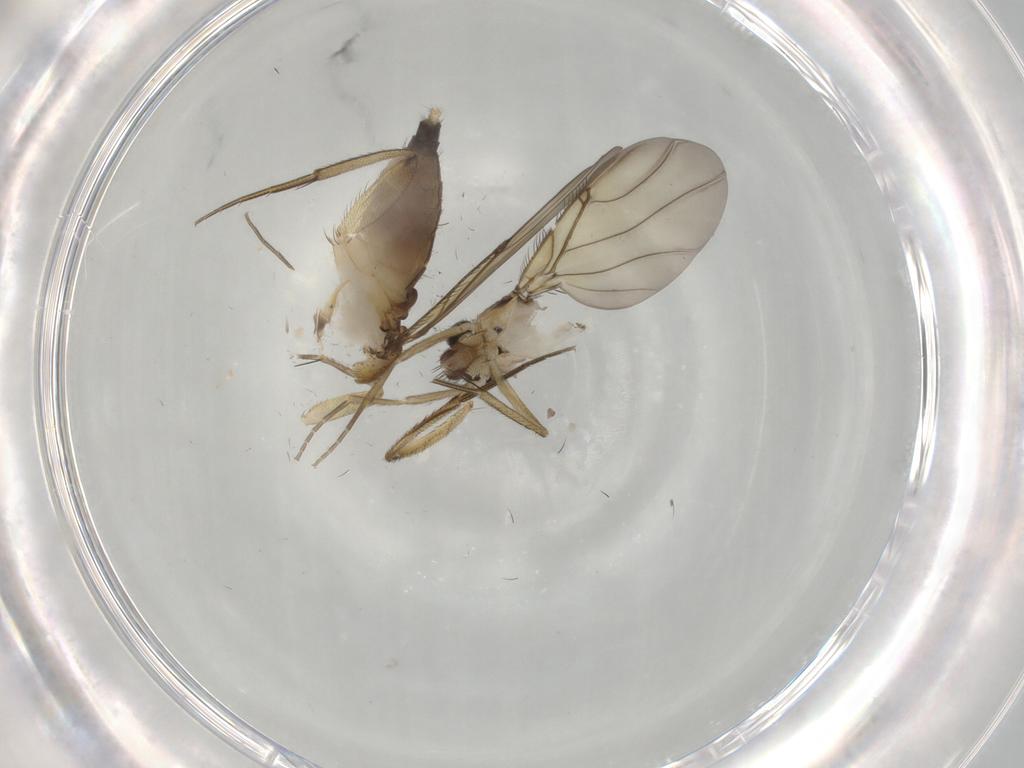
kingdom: Animalia
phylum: Arthropoda
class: Insecta
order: Diptera
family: Phoridae
